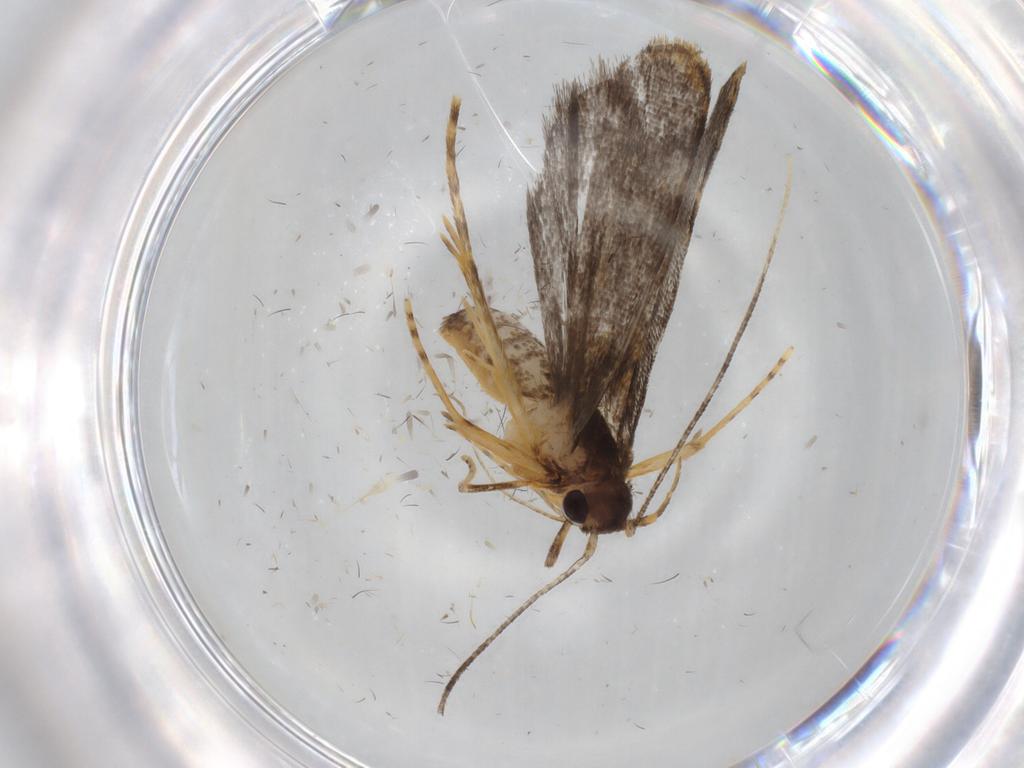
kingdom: Animalia
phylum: Arthropoda
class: Insecta
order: Lepidoptera
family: Cosmopterigidae
